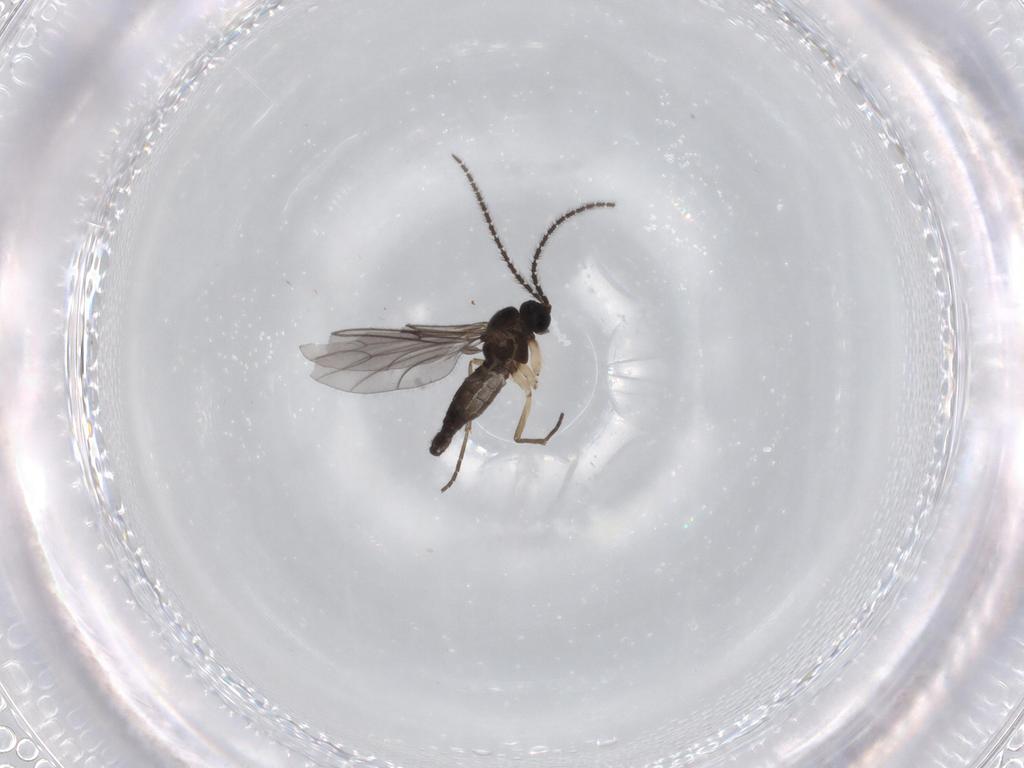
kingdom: Animalia
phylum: Arthropoda
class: Insecta
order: Diptera
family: Sciaridae
